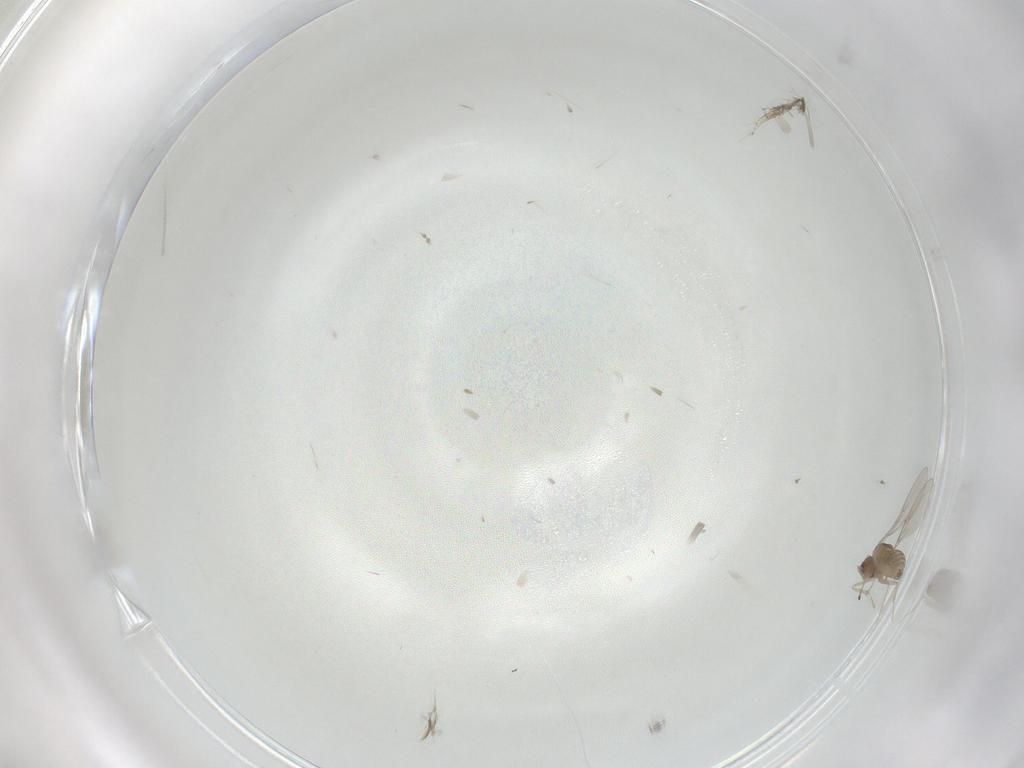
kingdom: Animalia
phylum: Arthropoda
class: Insecta
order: Diptera
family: Cecidomyiidae
